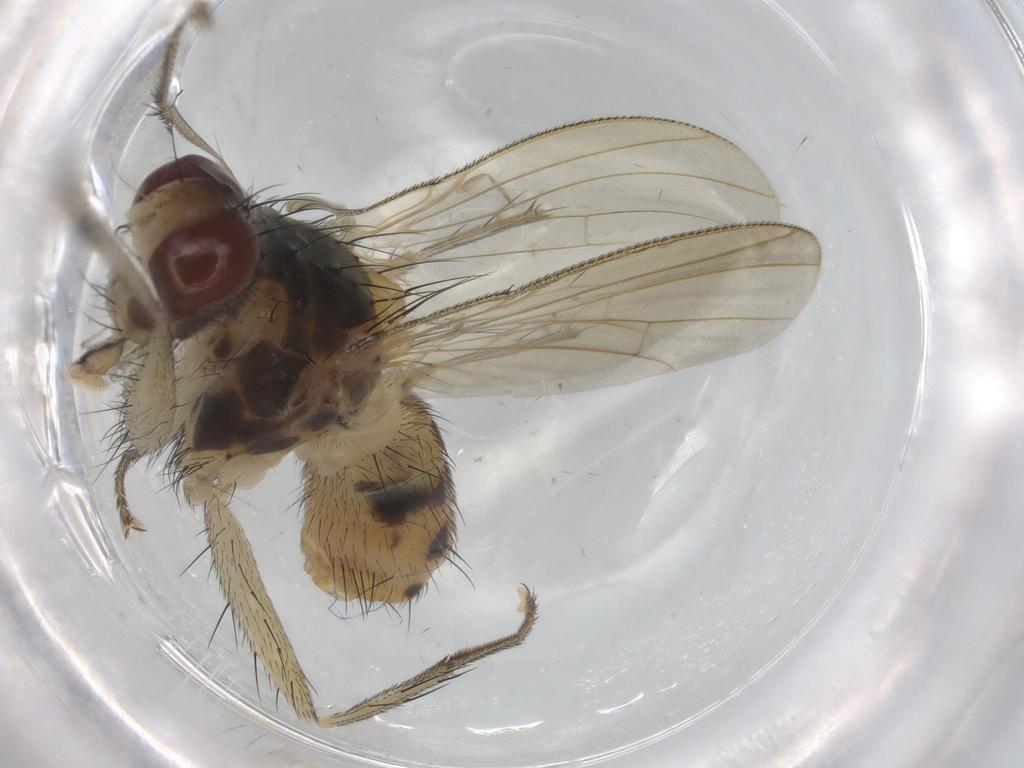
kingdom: Animalia
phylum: Arthropoda
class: Insecta
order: Diptera
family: Muscidae
